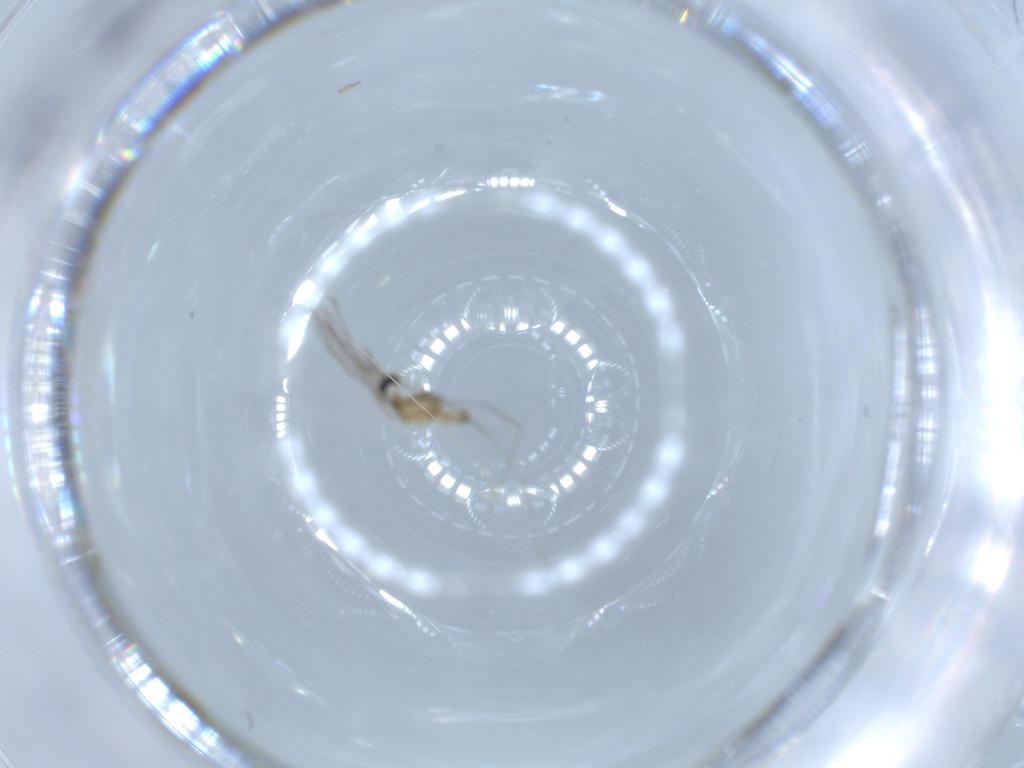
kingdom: Animalia
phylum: Arthropoda
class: Insecta
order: Diptera
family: Cecidomyiidae
